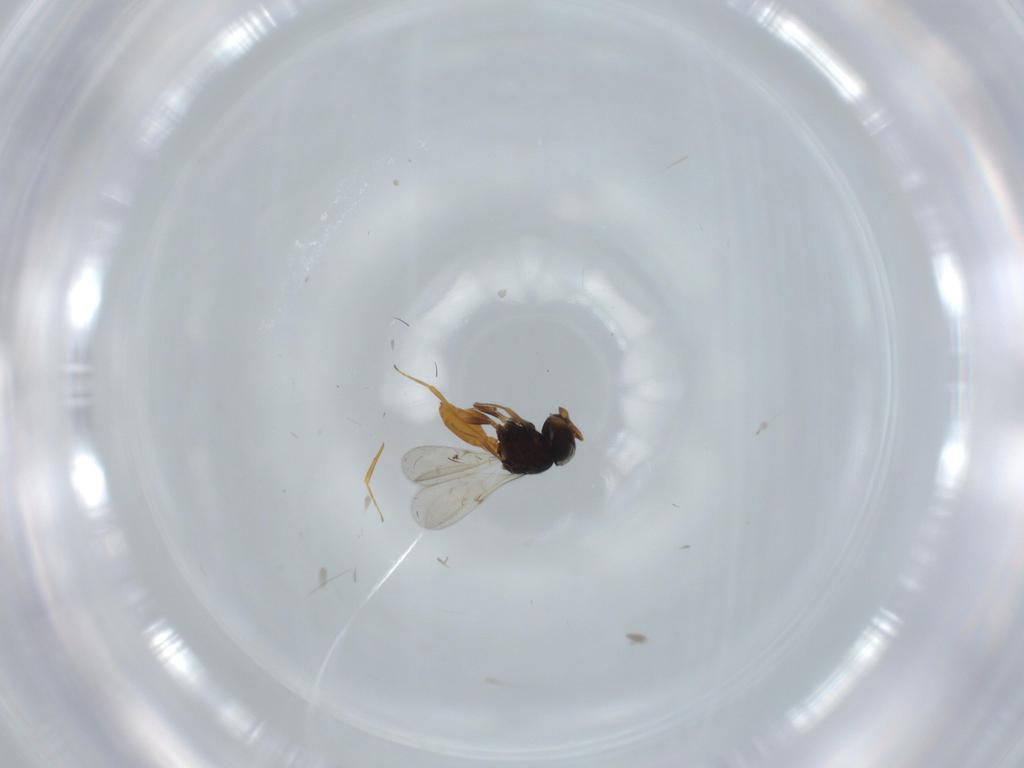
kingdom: Animalia
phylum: Arthropoda
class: Insecta
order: Hymenoptera
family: Scelionidae
